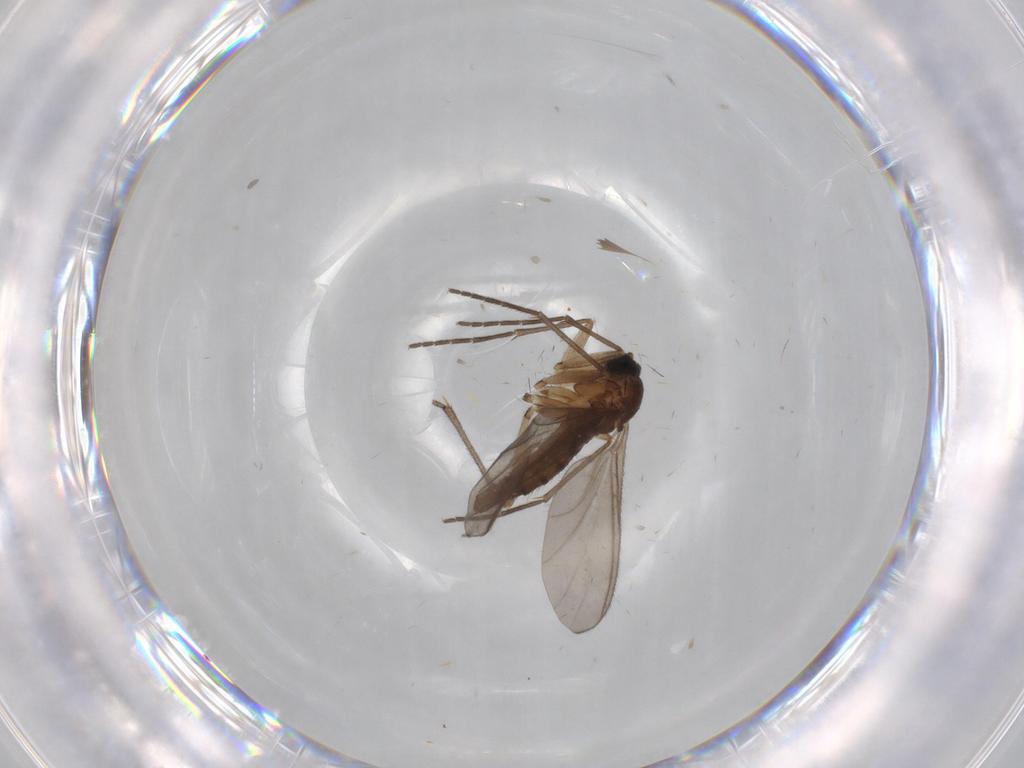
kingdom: Animalia
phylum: Arthropoda
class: Insecta
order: Diptera
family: Sciaridae
